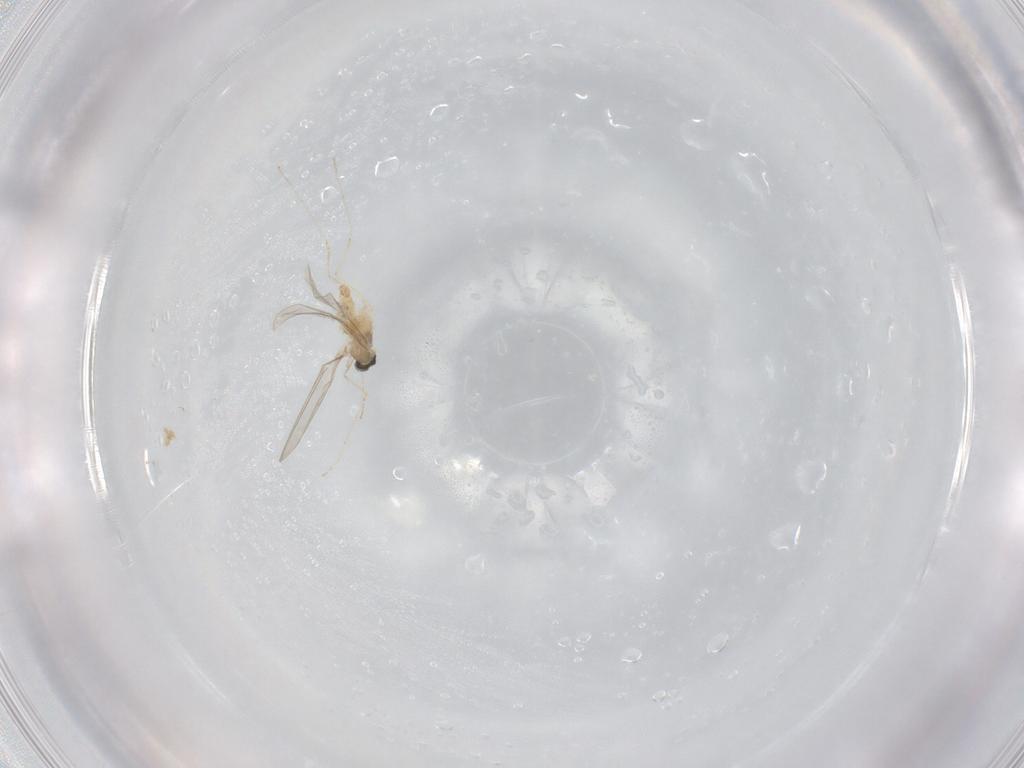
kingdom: Animalia
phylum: Arthropoda
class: Insecta
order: Diptera
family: Cecidomyiidae
